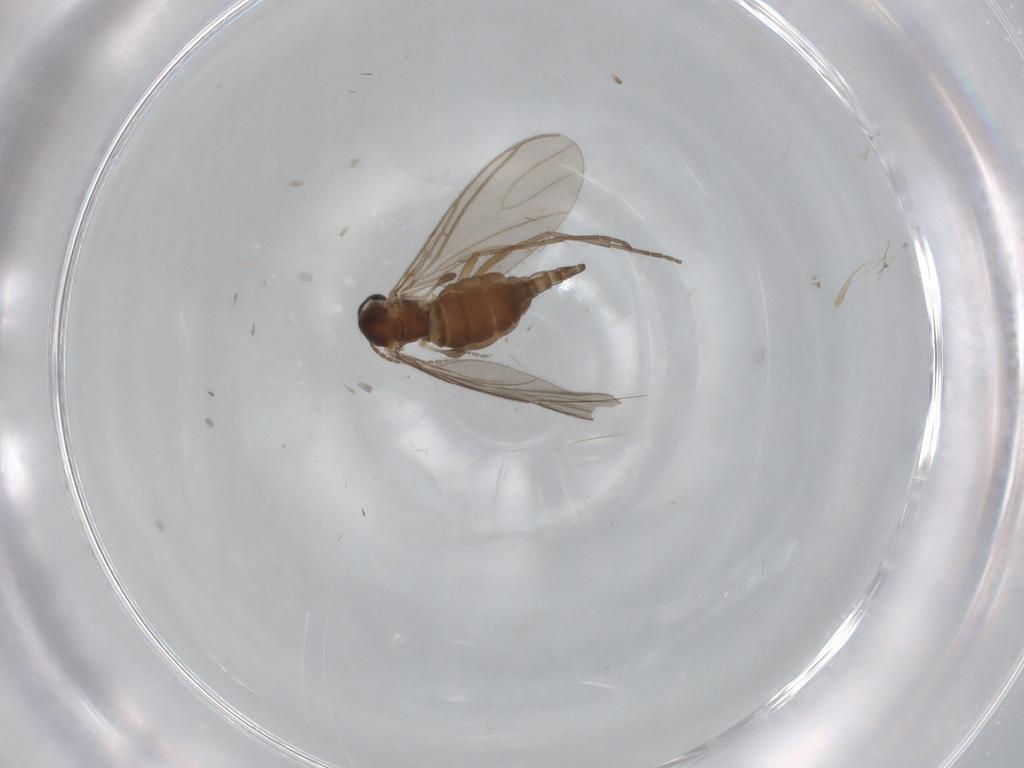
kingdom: Animalia
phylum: Arthropoda
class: Insecta
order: Diptera
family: Sciaridae
